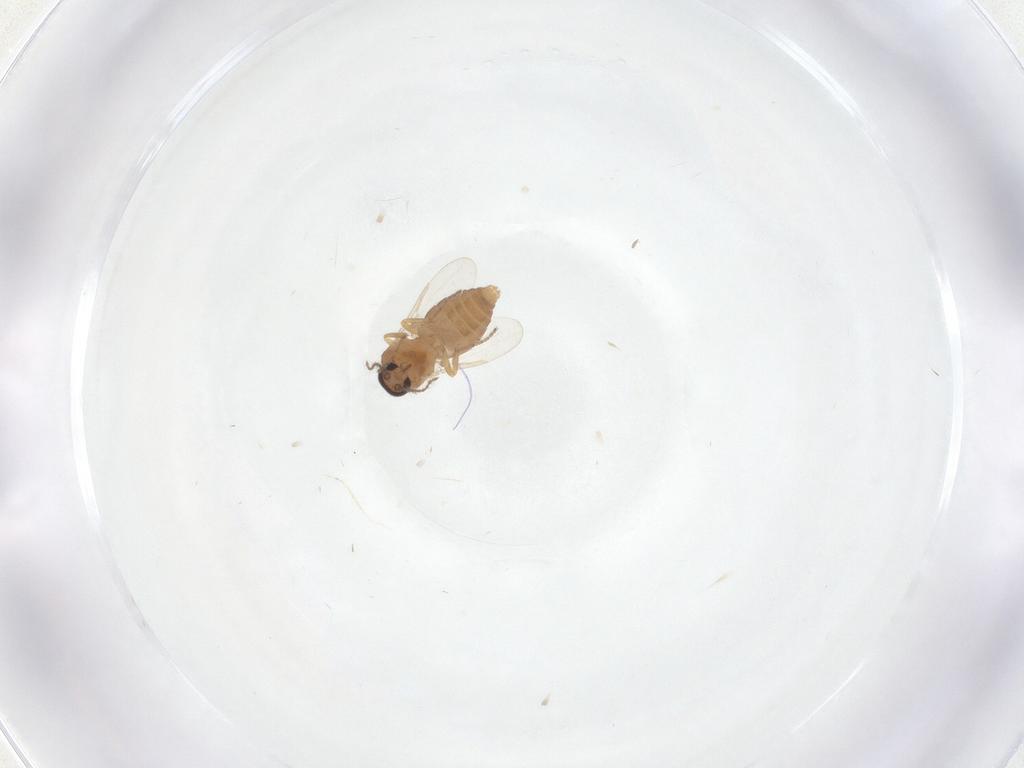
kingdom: Animalia
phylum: Arthropoda
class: Insecta
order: Diptera
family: Ceratopogonidae
